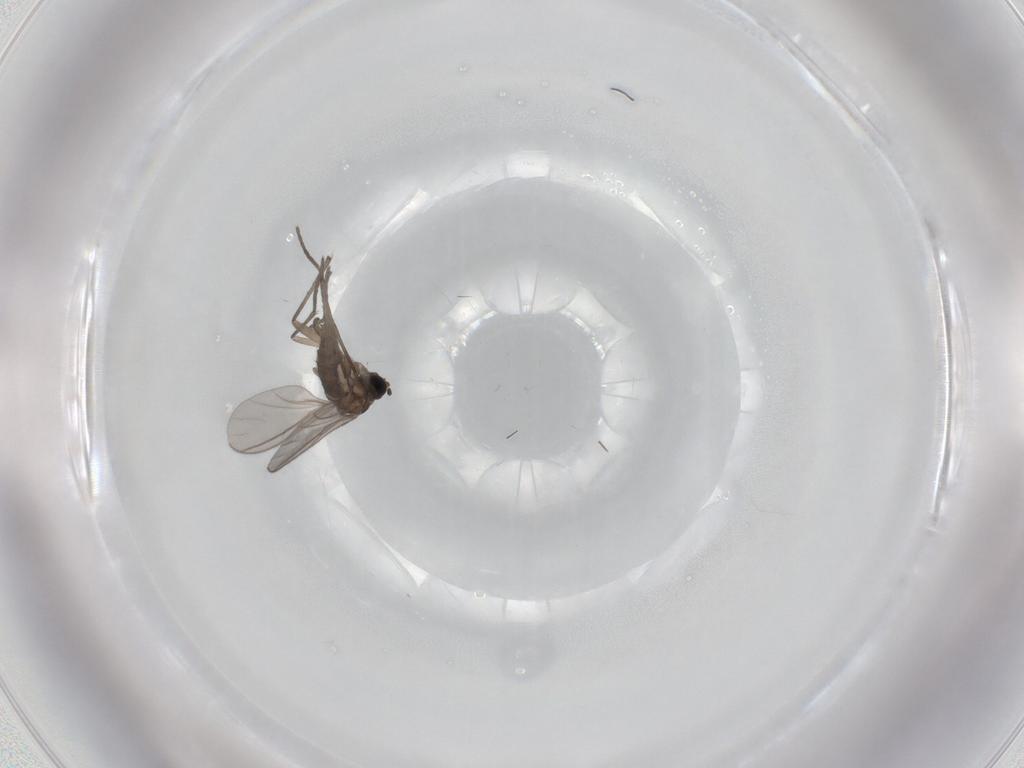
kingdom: Animalia
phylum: Arthropoda
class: Insecta
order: Diptera
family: Sciaridae
